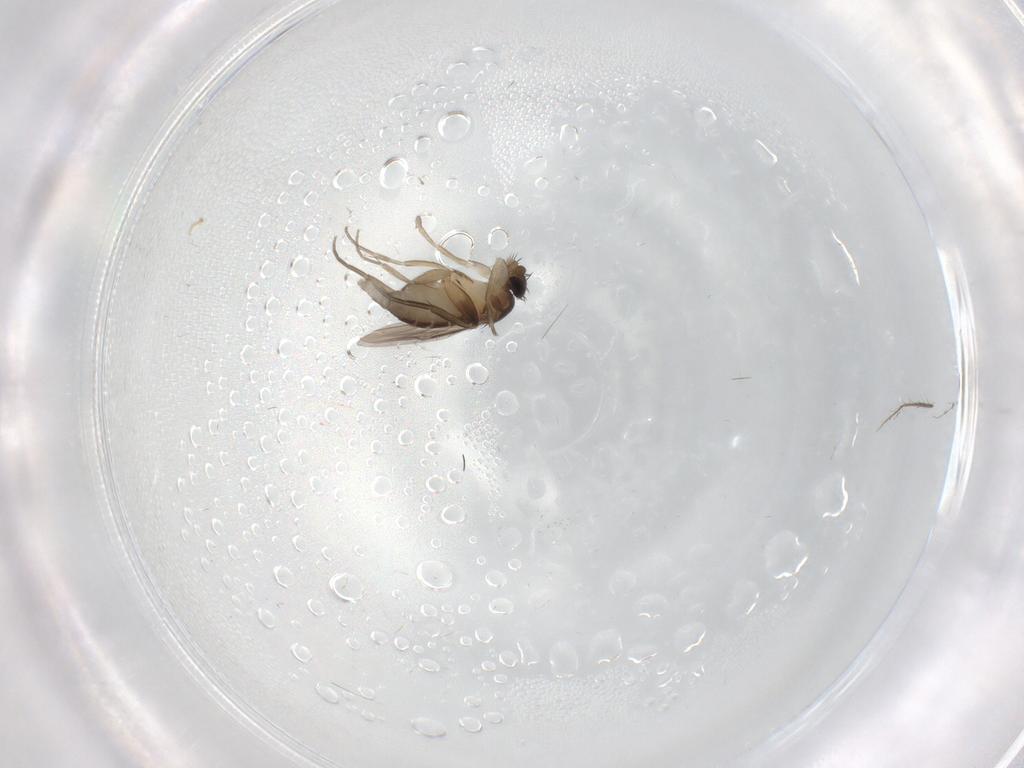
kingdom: Animalia
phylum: Arthropoda
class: Insecta
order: Diptera
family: Phoridae
